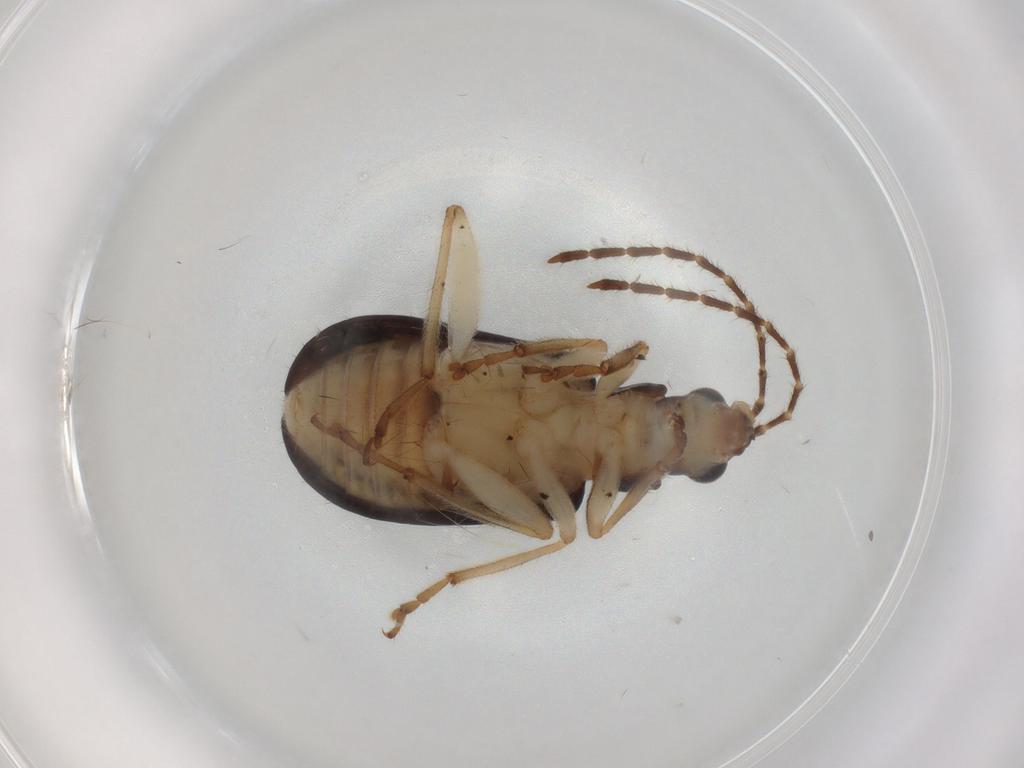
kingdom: Animalia
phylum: Arthropoda
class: Insecta
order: Coleoptera
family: Chrysomelidae
